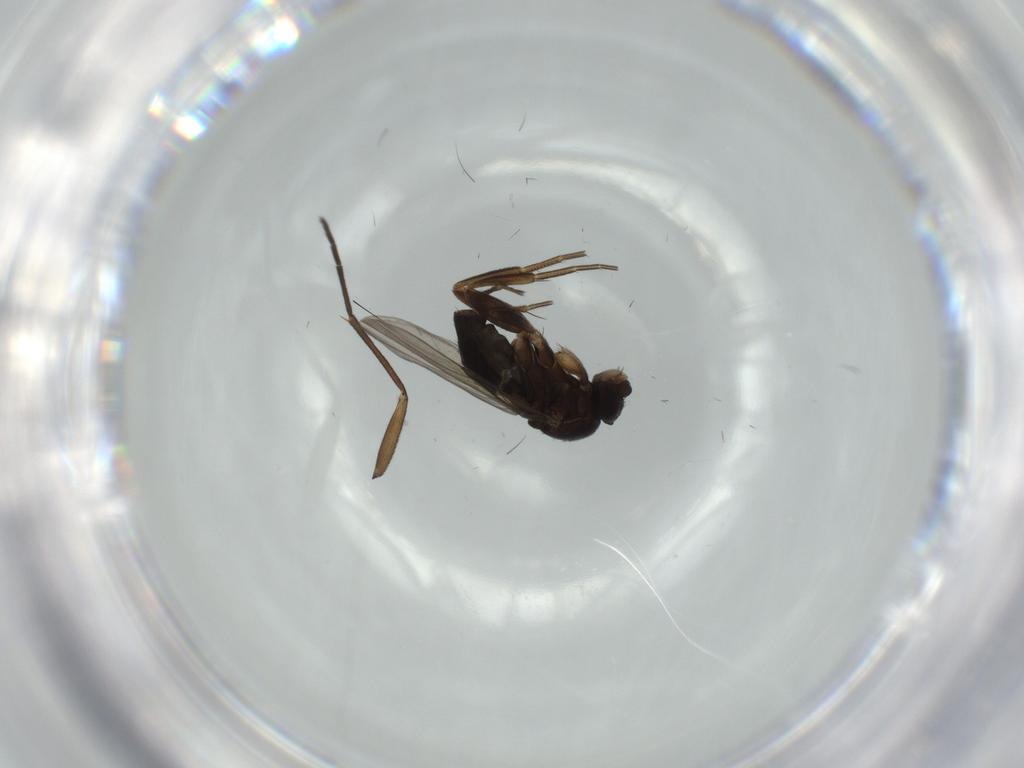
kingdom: Animalia
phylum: Arthropoda
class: Insecta
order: Diptera
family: Phoridae
